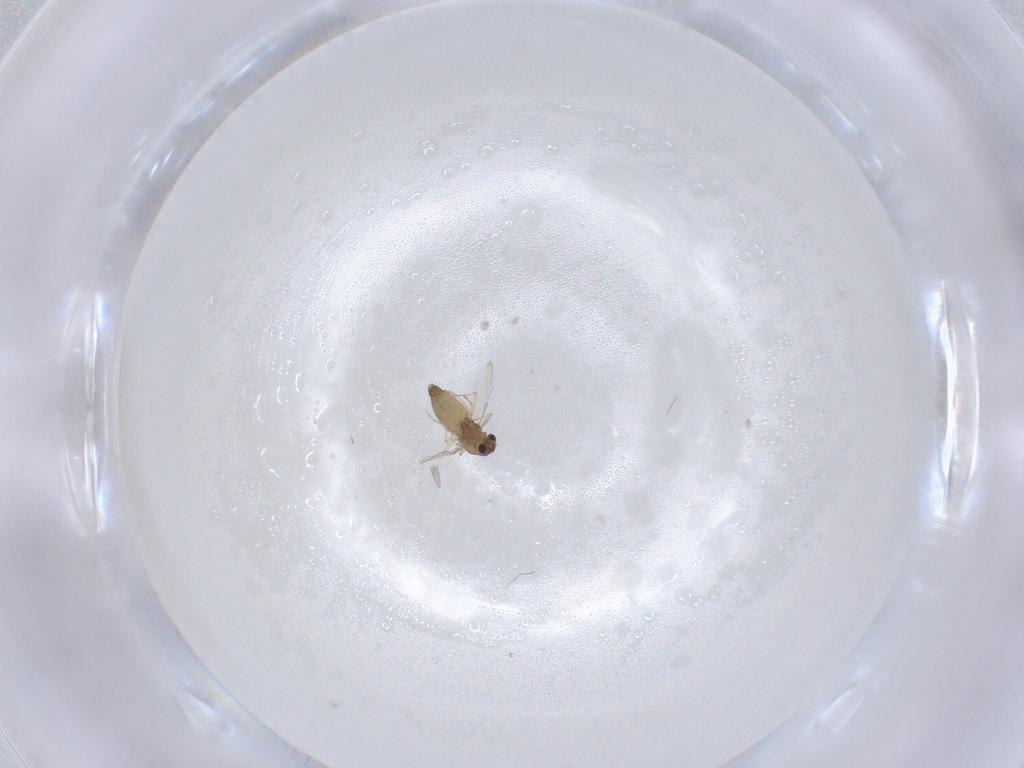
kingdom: Animalia
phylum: Arthropoda
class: Insecta
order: Diptera
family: Chironomidae
